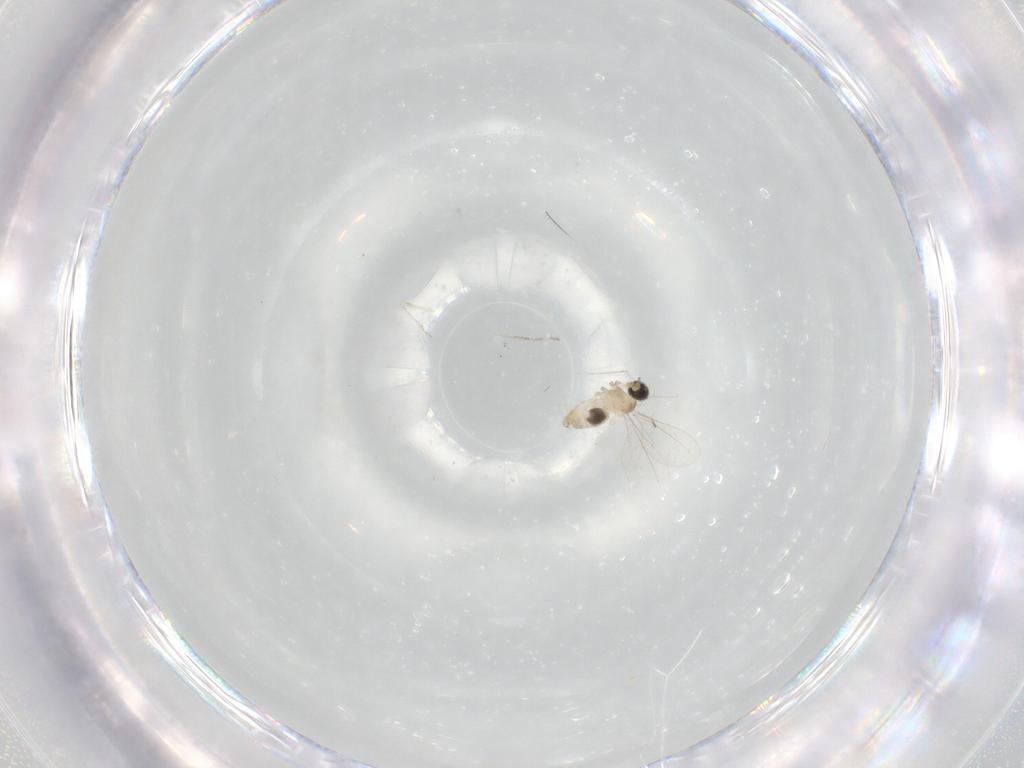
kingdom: Animalia
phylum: Arthropoda
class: Insecta
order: Diptera
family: Cecidomyiidae
